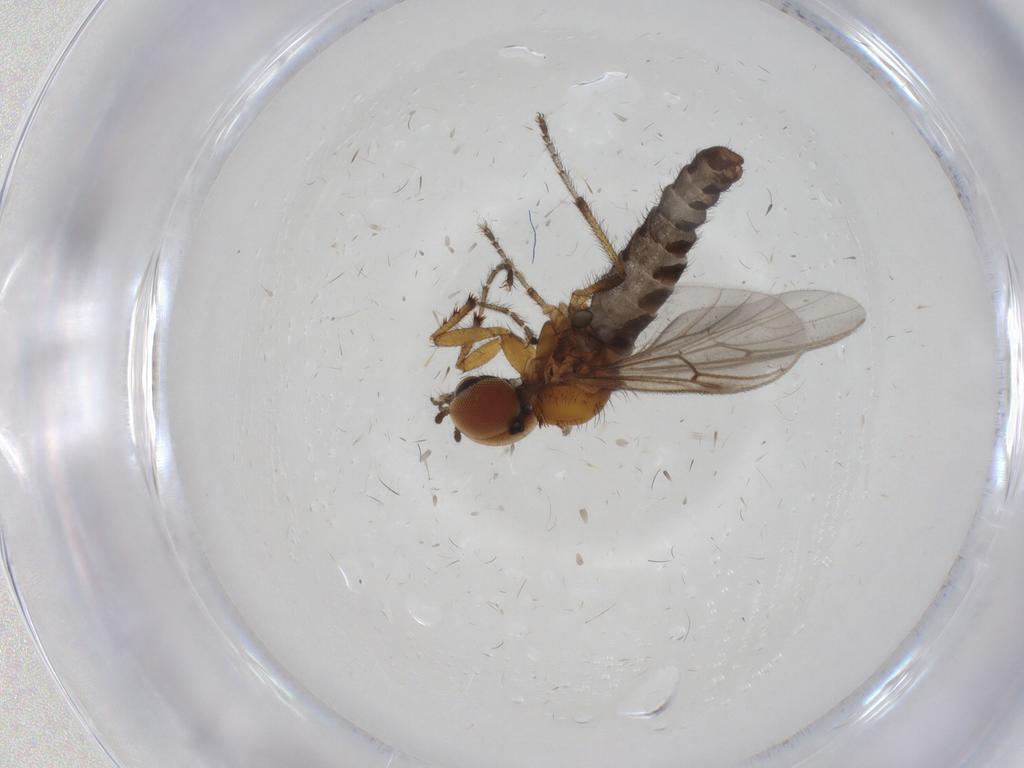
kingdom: Animalia
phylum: Arthropoda
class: Insecta
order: Diptera
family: Bibionidae
